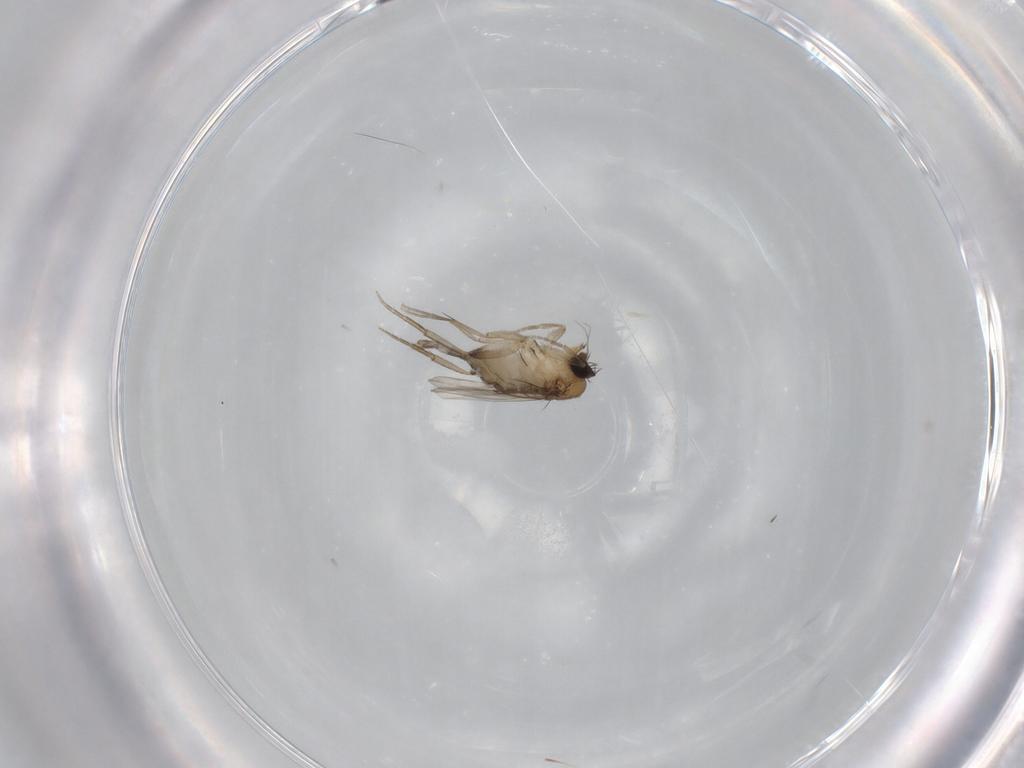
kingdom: Animalia
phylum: Arthropoda
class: Insecta
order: Diptera
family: Phoridae
